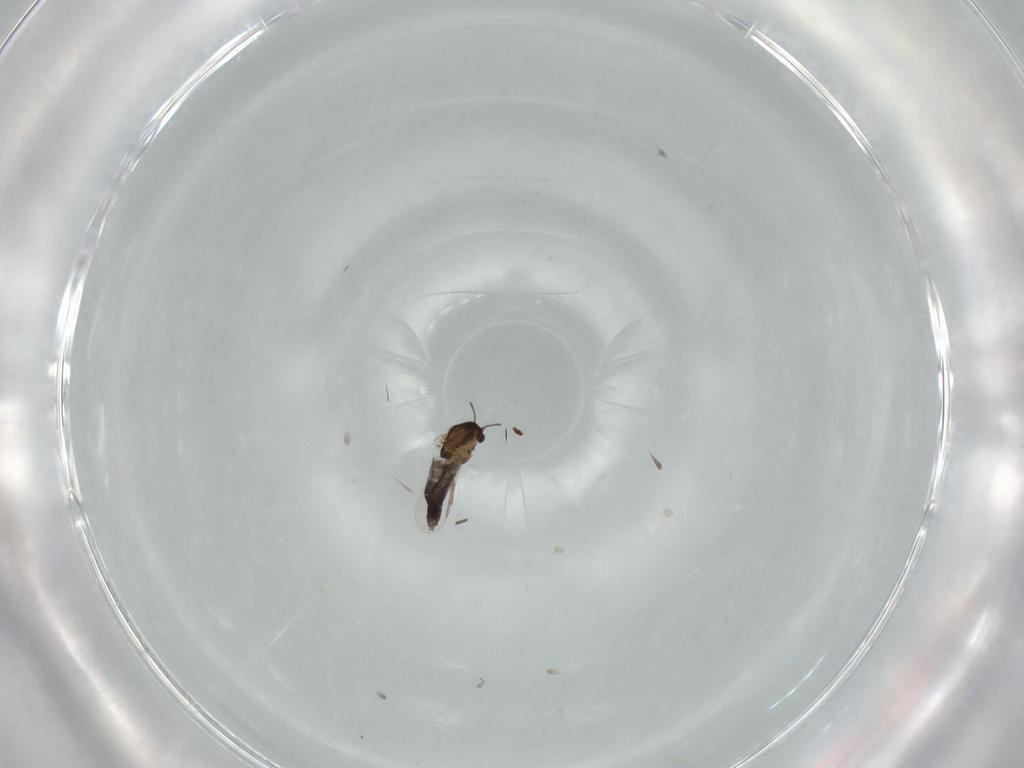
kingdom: Animalia
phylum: Arthropoda
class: Insecta
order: Diptera
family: Chironomidae
